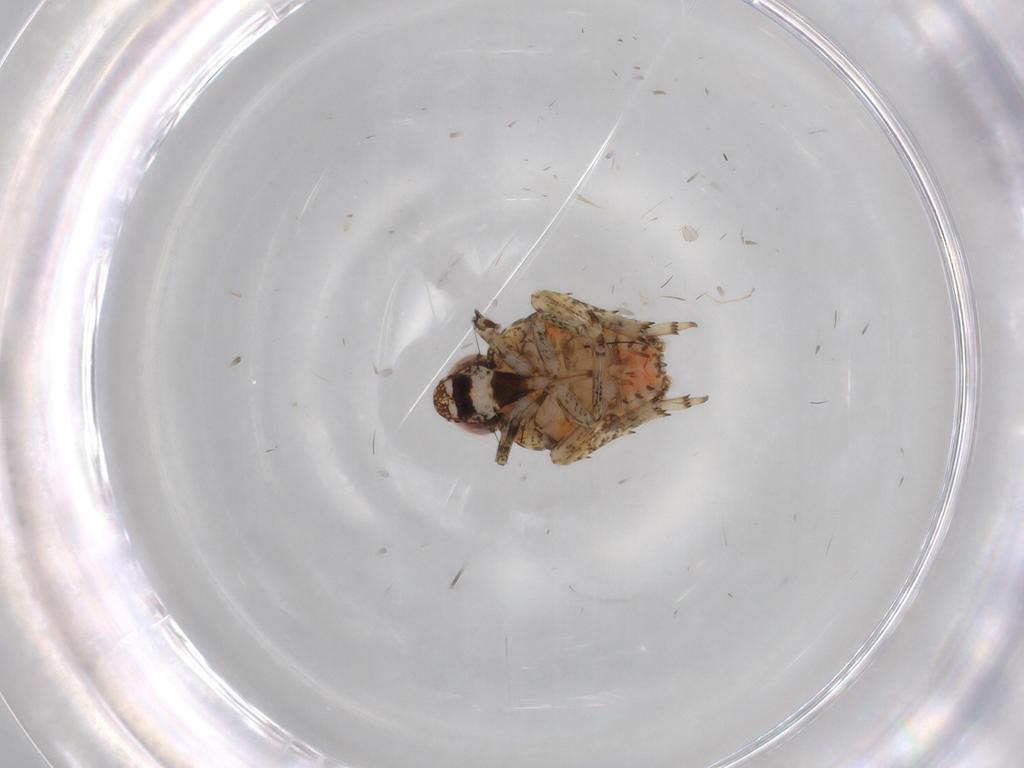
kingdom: Animalia
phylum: Arthropoda
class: Insecta
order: Hemiptera
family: Issidae
